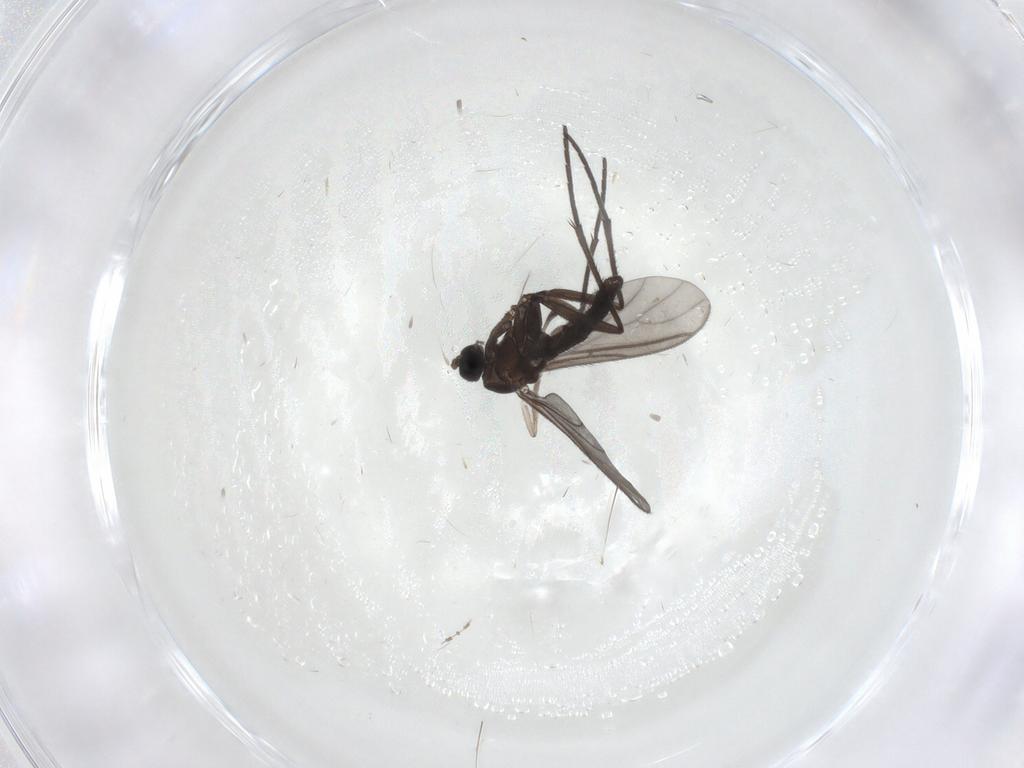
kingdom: Animalia
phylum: Arthropoda
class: Insecta
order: Diptera
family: Psychodidae
